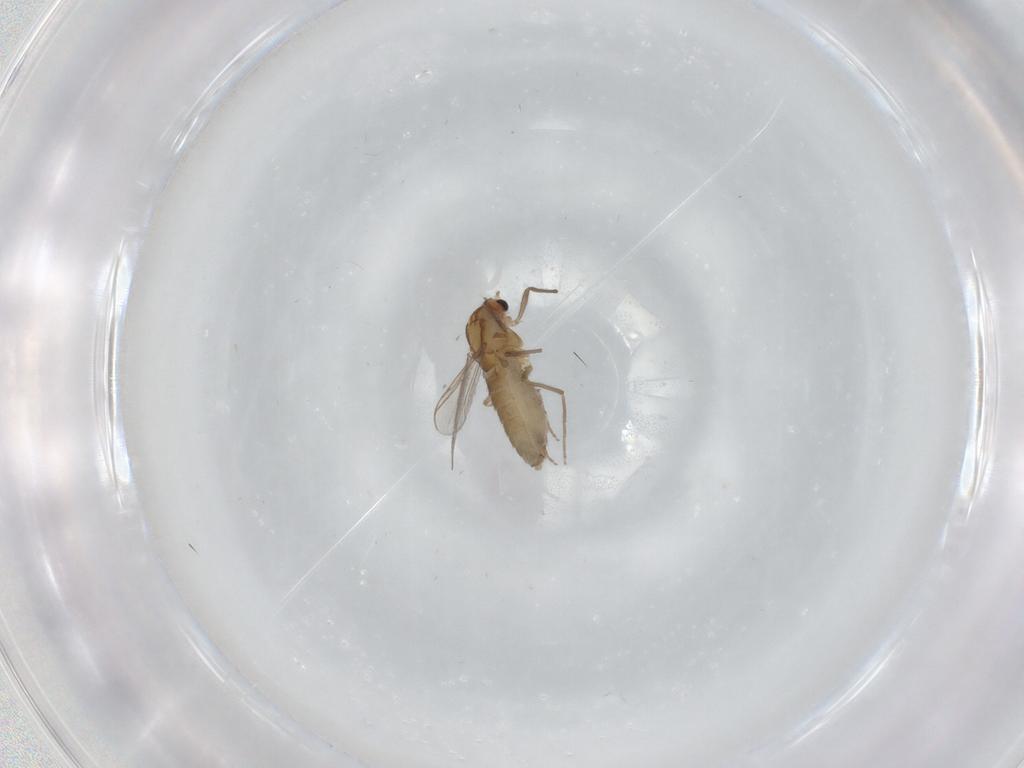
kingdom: Animalia
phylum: Arthropoda
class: Insecta
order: Diptera
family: Chironomidae
